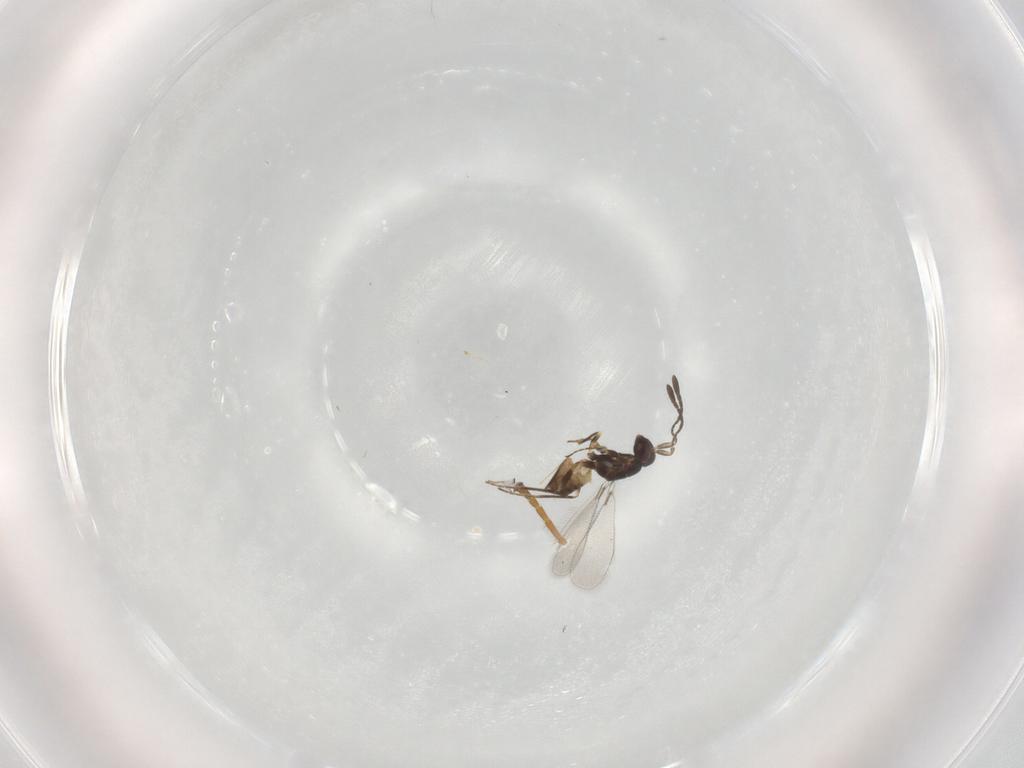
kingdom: Animalia
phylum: Arthropoda
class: Insecta
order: Hymenoptera
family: Mymaridae
